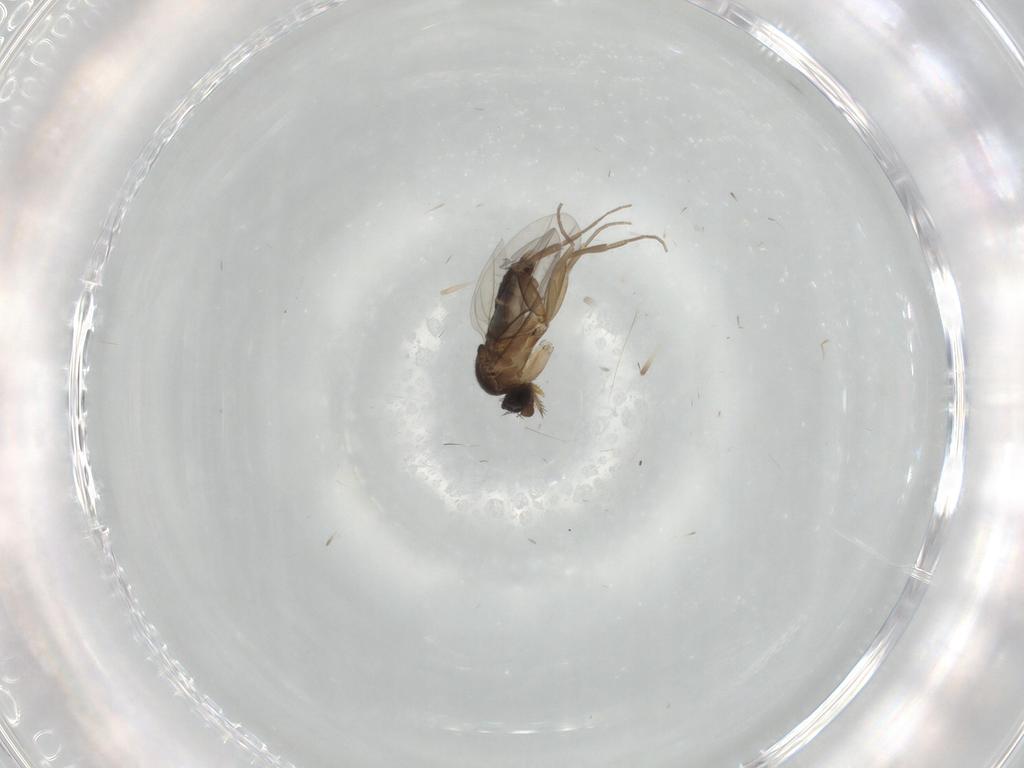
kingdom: Animalia
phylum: Arthropoda
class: Insecta
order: Diptera
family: Phoridae
